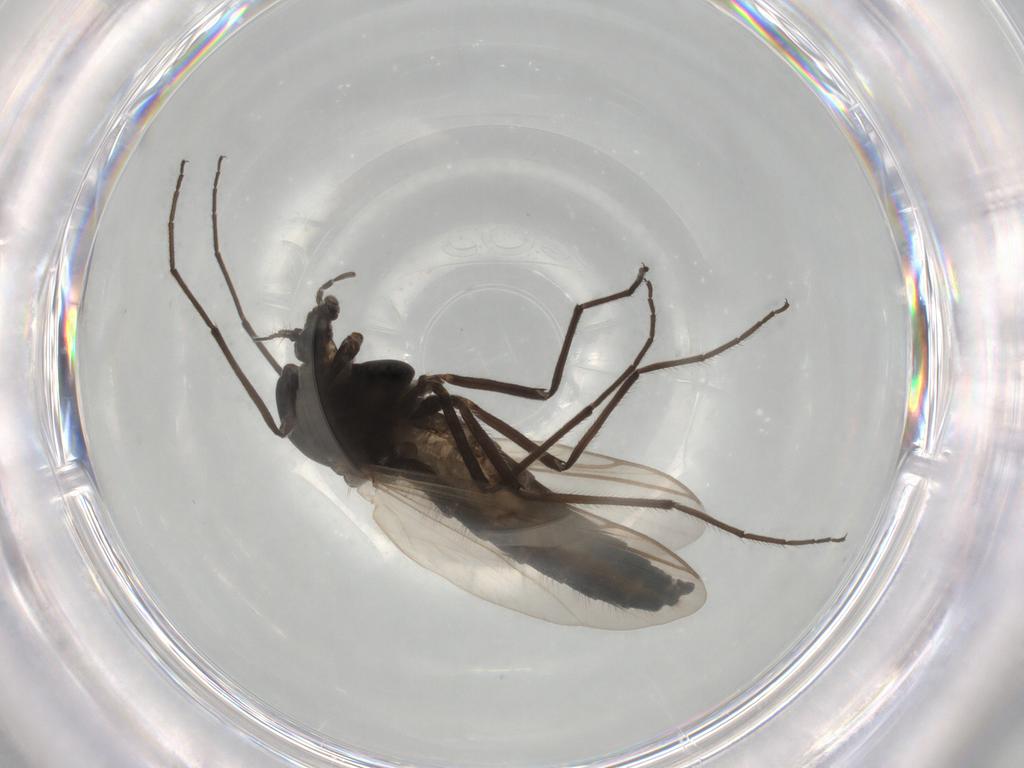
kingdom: Animalia
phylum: Arthropoda
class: Insecta
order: Diptera
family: Chironomidae
